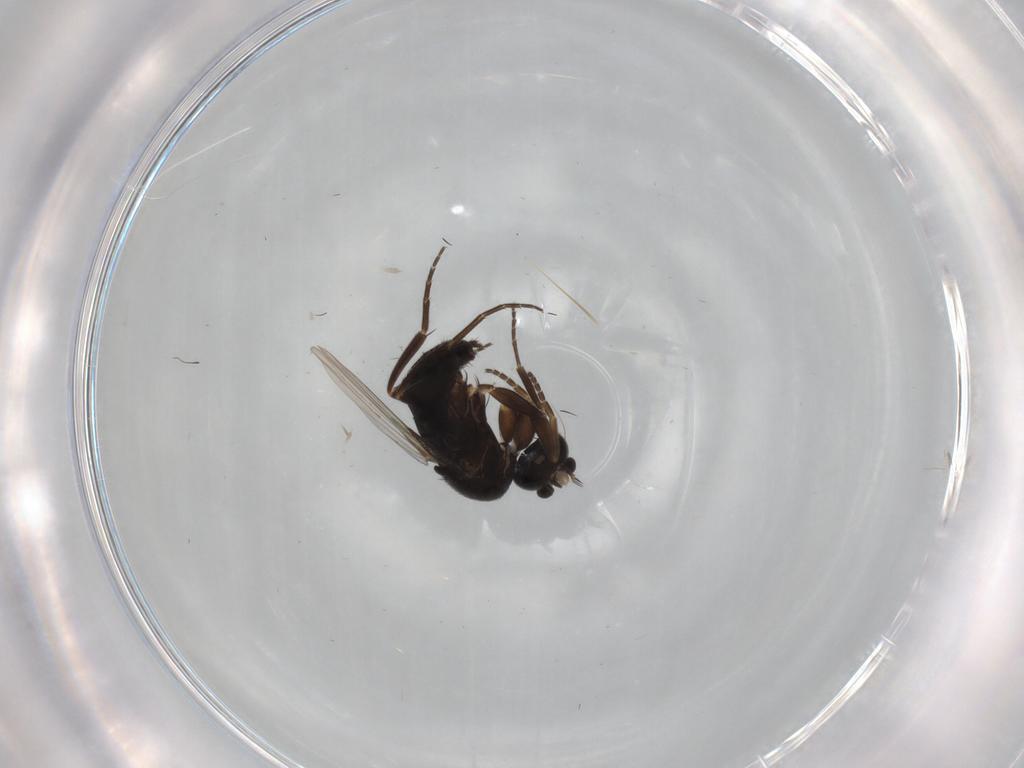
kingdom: Animalia
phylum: Arthropoda
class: Insecta
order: Diptera
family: Phoridae
